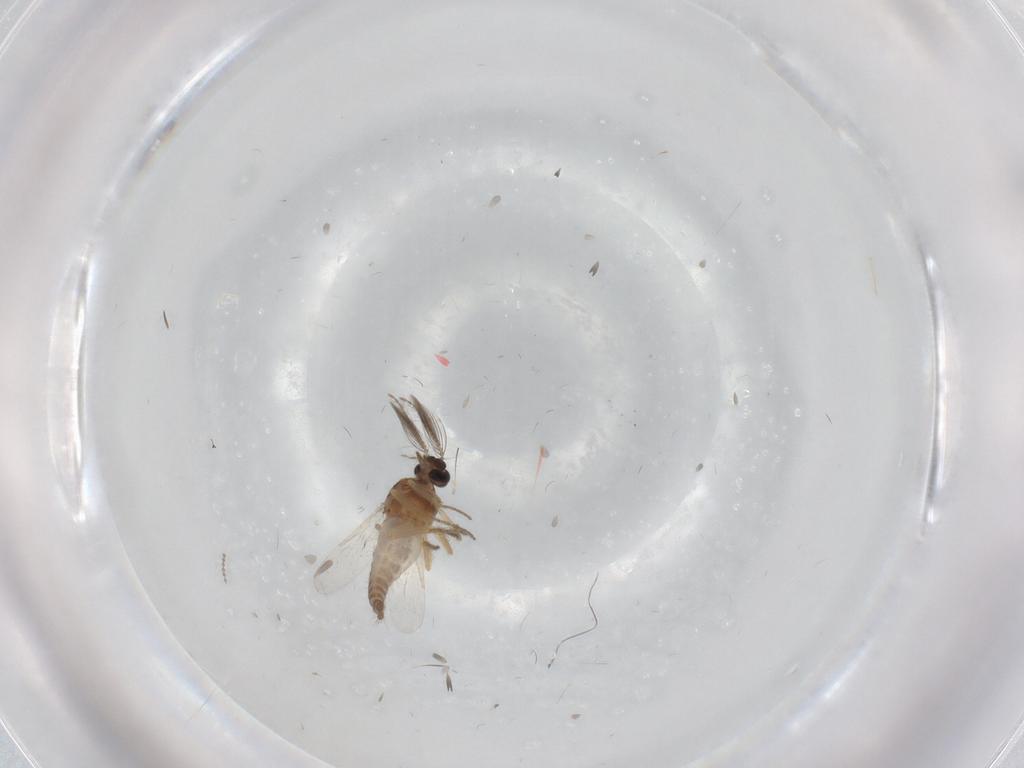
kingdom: Animalia
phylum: Arthropoda
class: Insecta
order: Diptera
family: Ceratopogonidae
